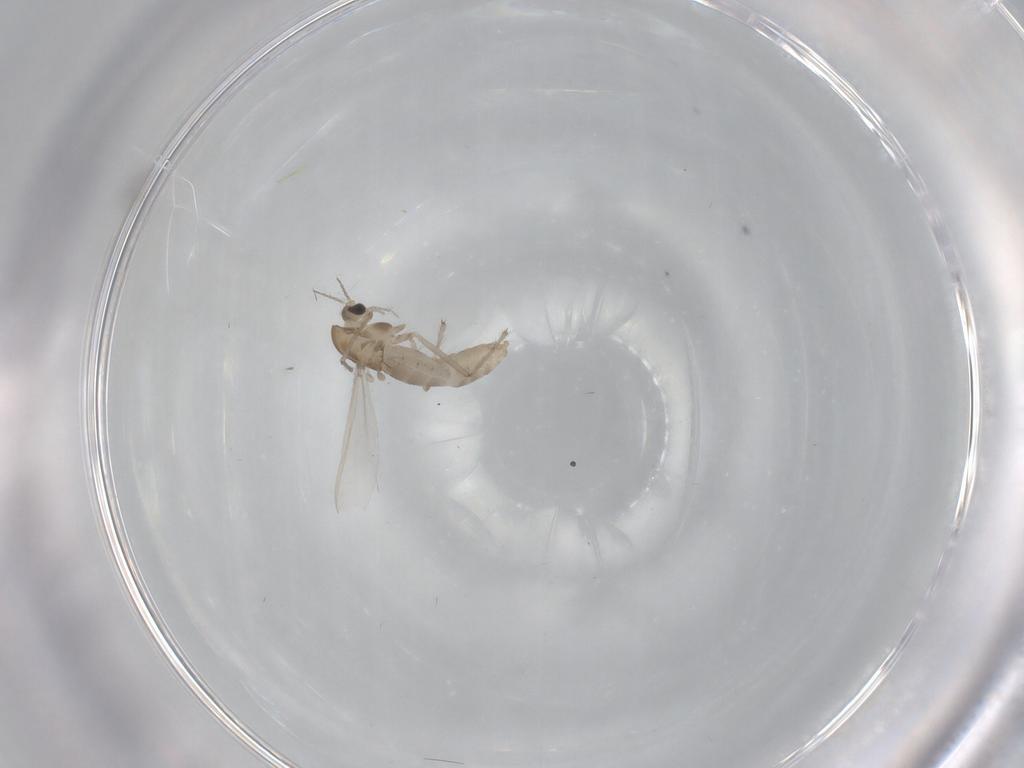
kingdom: Animalia
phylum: Arthropoda
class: Insecta
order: Diptera
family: Chironomidae
